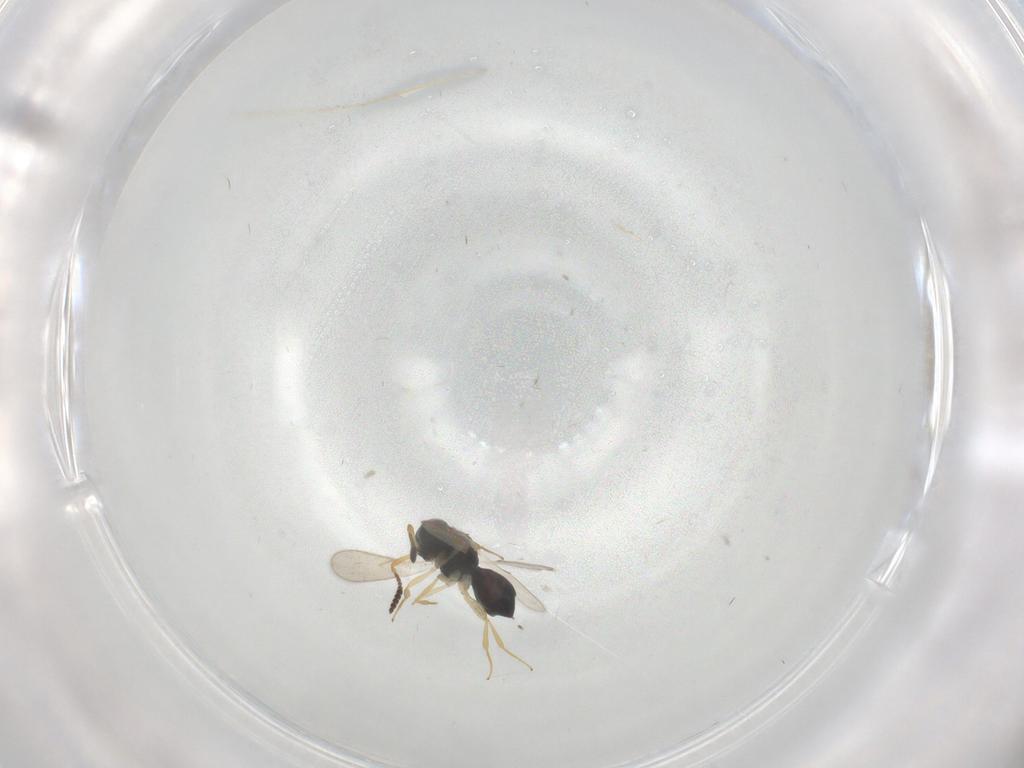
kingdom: Animalia
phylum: Arthropoda
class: Insecta
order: Hymenoptera
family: Scelionidae
